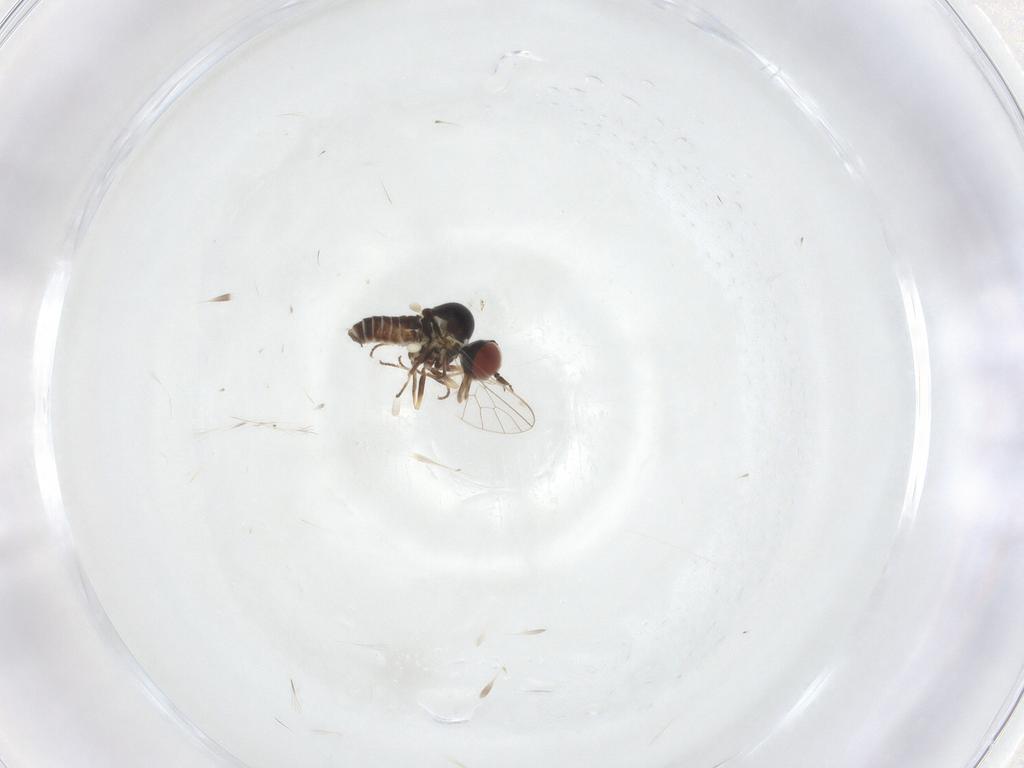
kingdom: Animalia
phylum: Arthropoda
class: Insecta
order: Diptera
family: Mythicomyiidae
